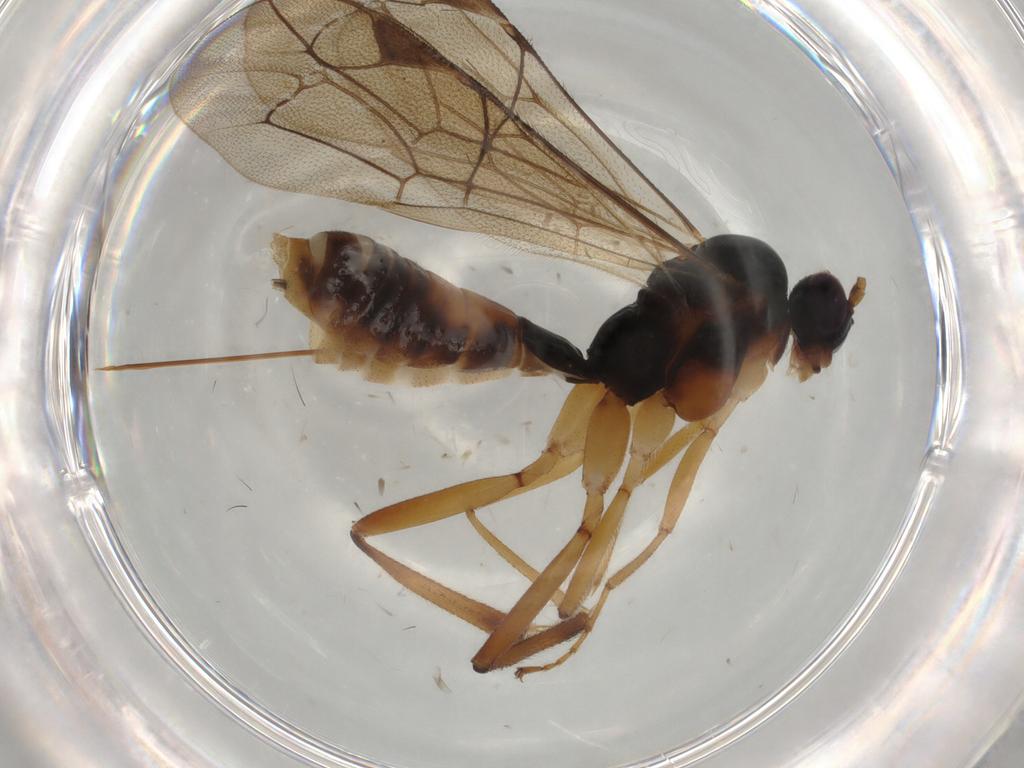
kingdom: Animalia
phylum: Arthropoda
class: Insecta
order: Hymenoptera
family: Ichneumonidae
